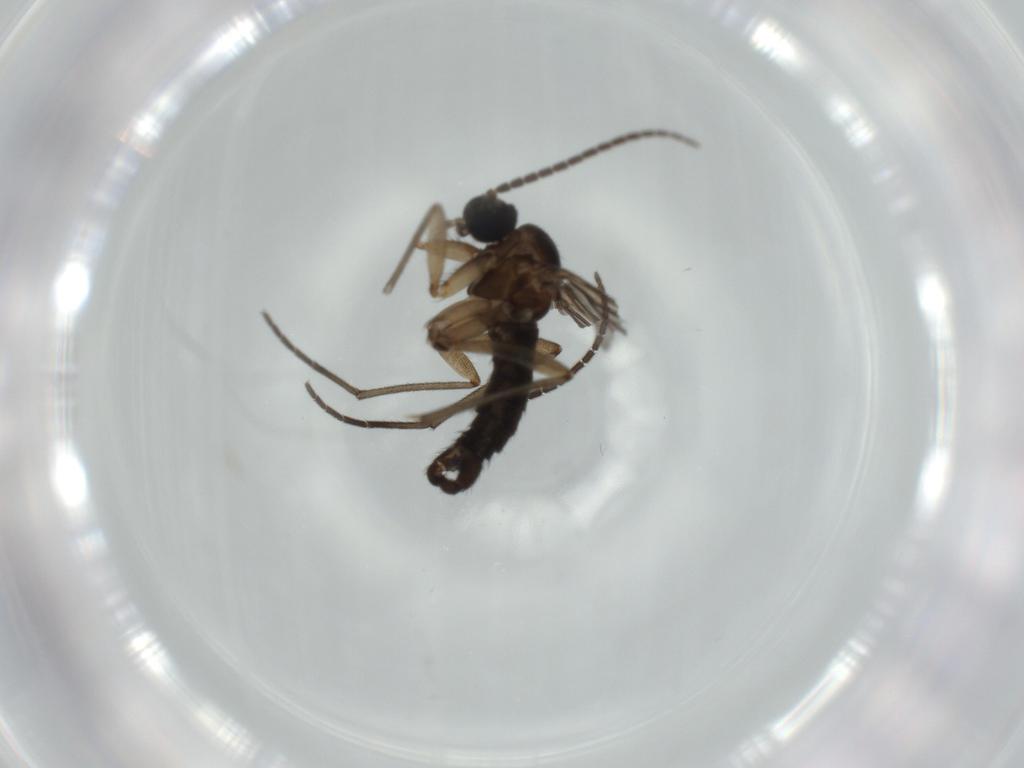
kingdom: Animalia
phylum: Arthropoda
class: Insecta
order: Diptera
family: Sciaridae
